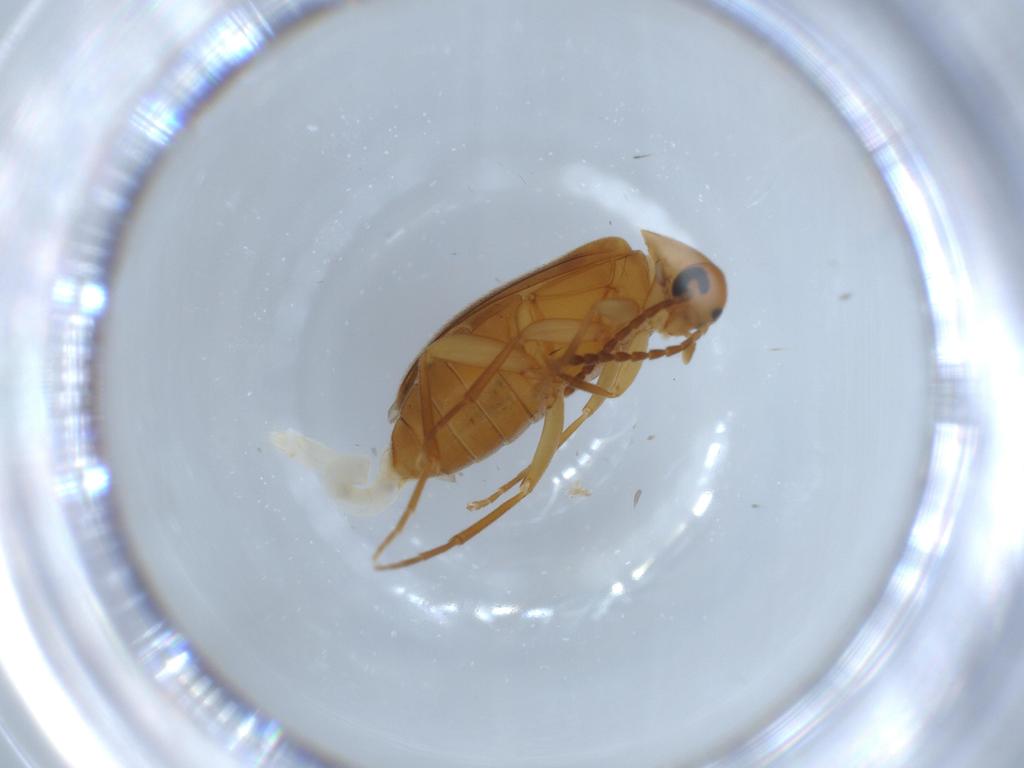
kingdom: Animalia
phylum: Arthropoda
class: Insecta
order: Coleoptera
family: Scraptiidae
